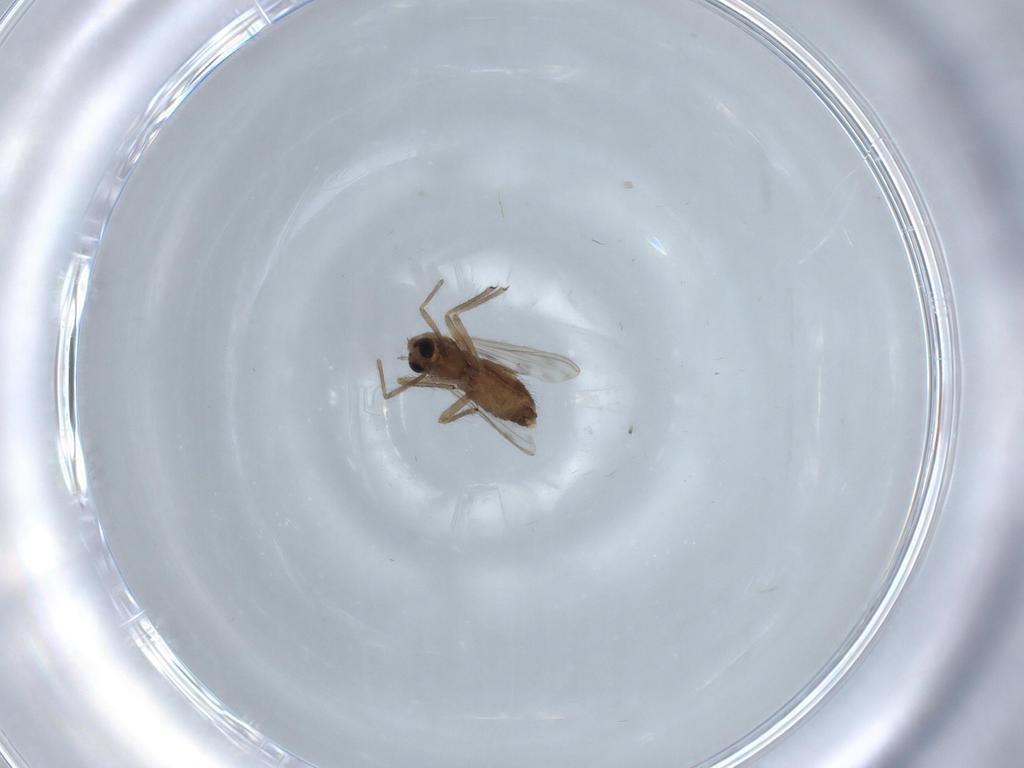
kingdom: Animalia
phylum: Arthropoda
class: Insecta
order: Diptera
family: Chironomidae
